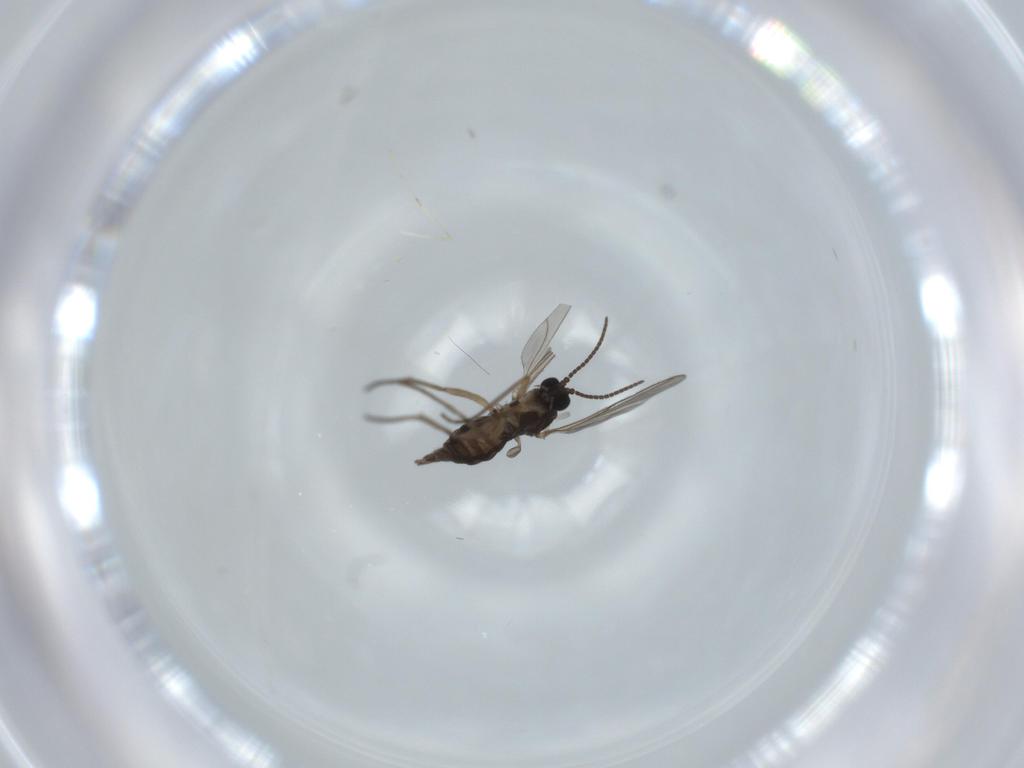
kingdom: Animalia
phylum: Arthropoda
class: Insecta
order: Diptera
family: Sciaridae
